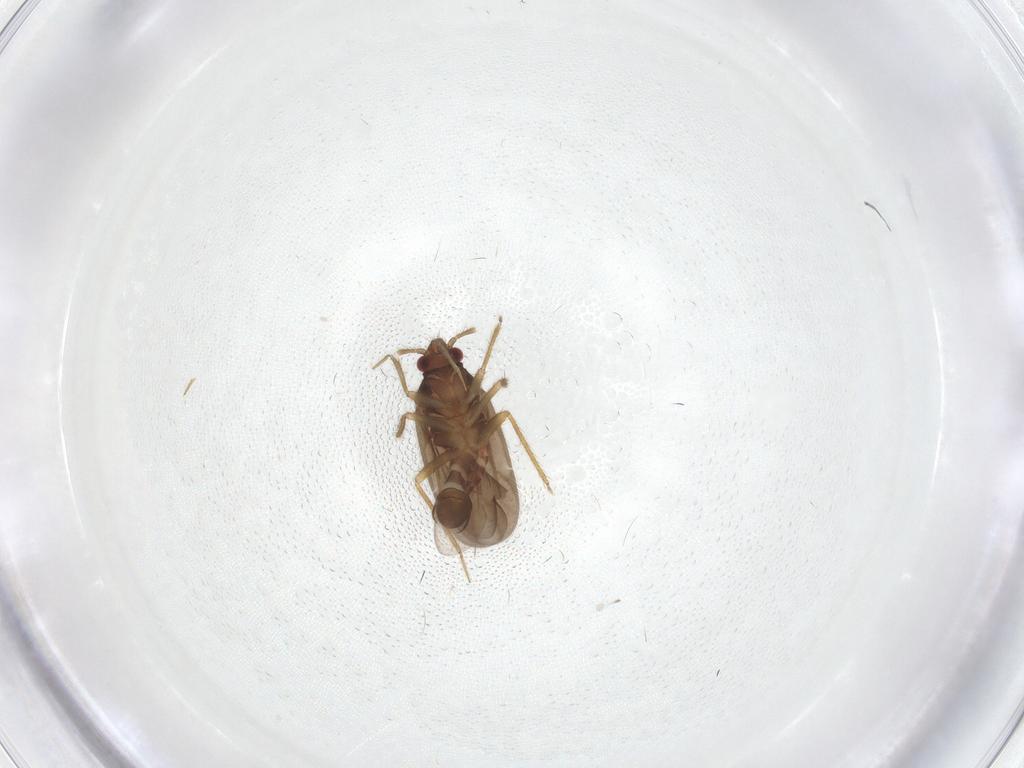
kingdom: Animalia
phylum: Arthropoda
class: Insecta
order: Hemiptera
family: Ceratocombidae
